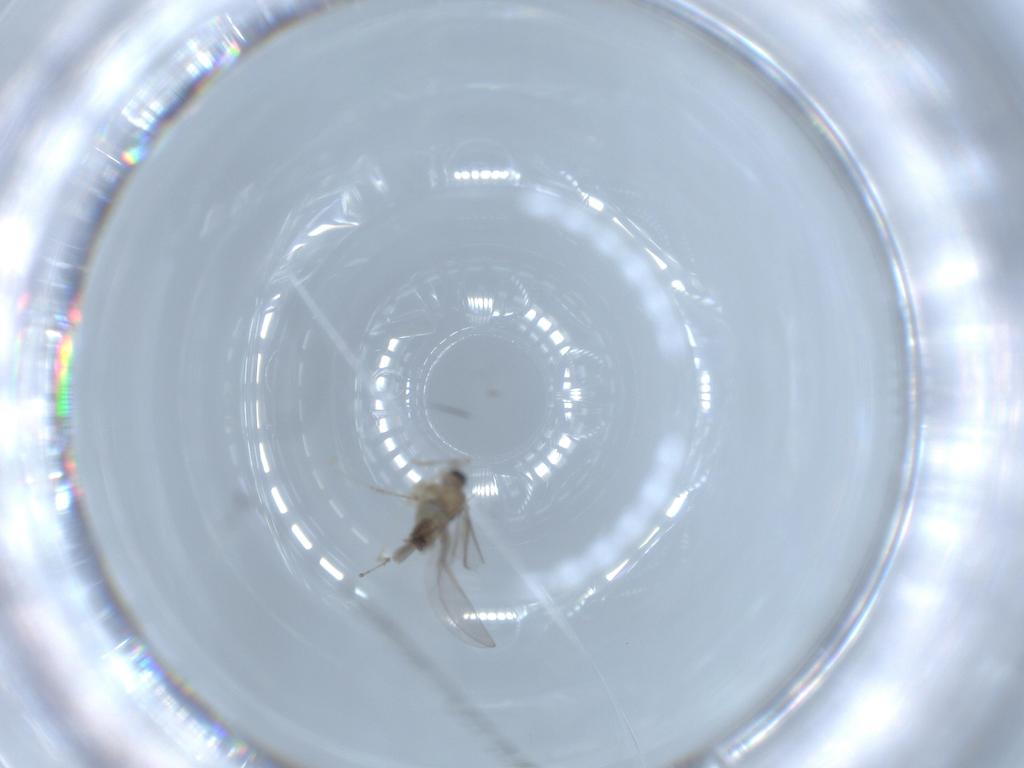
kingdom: Animalia
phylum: Arthropoda
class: Insecta
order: Diptera
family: Cecidomyiidae
